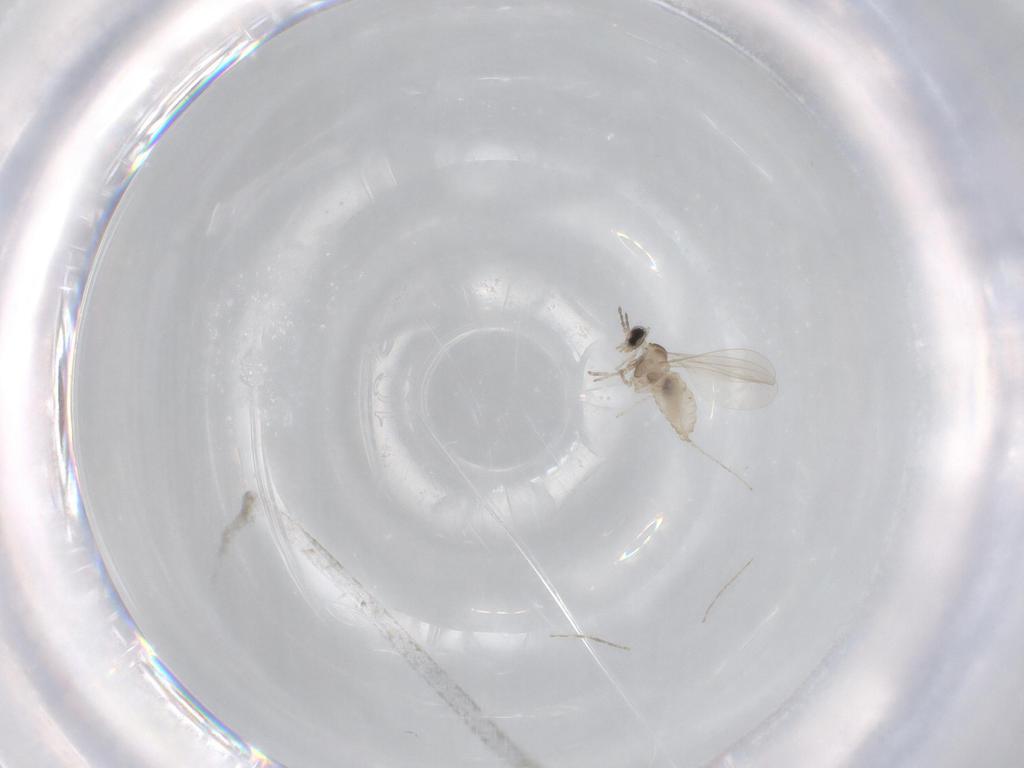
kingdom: Animalia
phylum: Arthropoda
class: Insecta
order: Diptera
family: Cecidomyiidae
